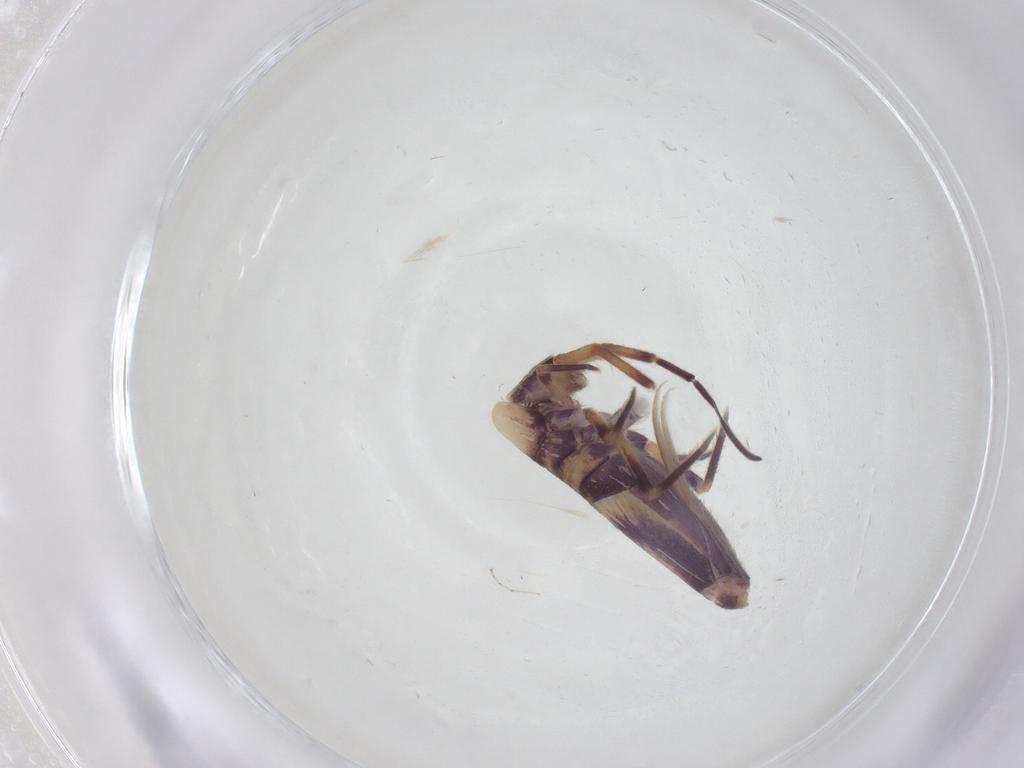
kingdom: Animalia
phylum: Arthropoda
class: Collembola
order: Entomobryomorpha
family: Entomobryidae
